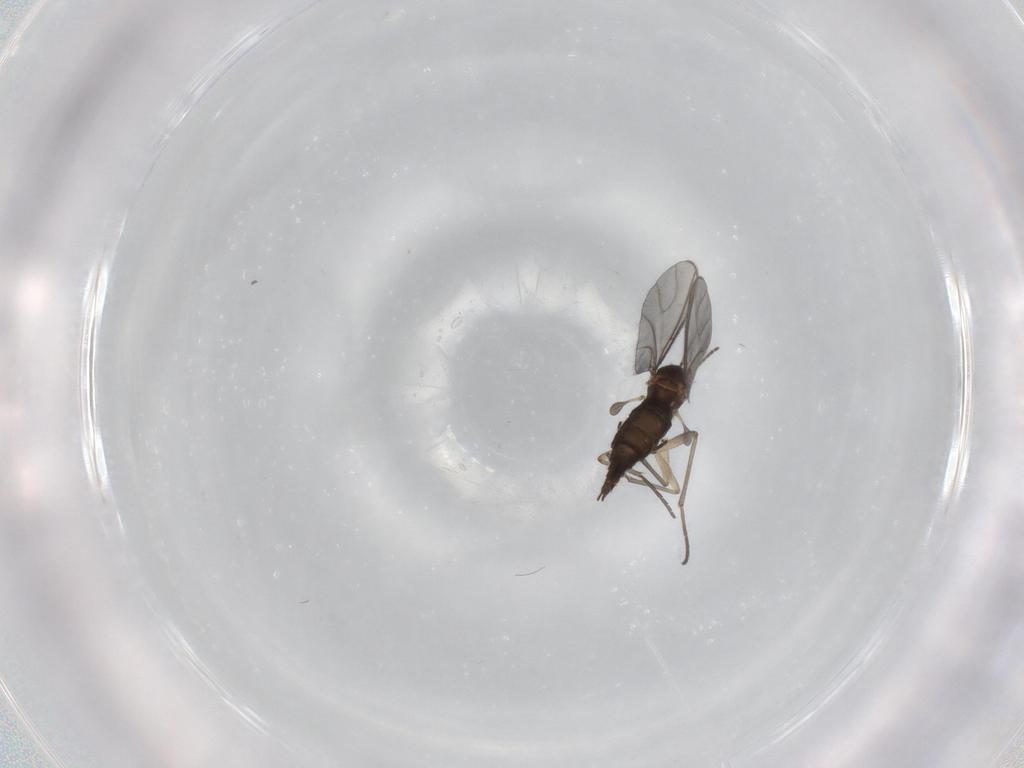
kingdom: Animalia
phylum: Arthropoda
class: Insecta
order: Diptera
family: Sciaridae
